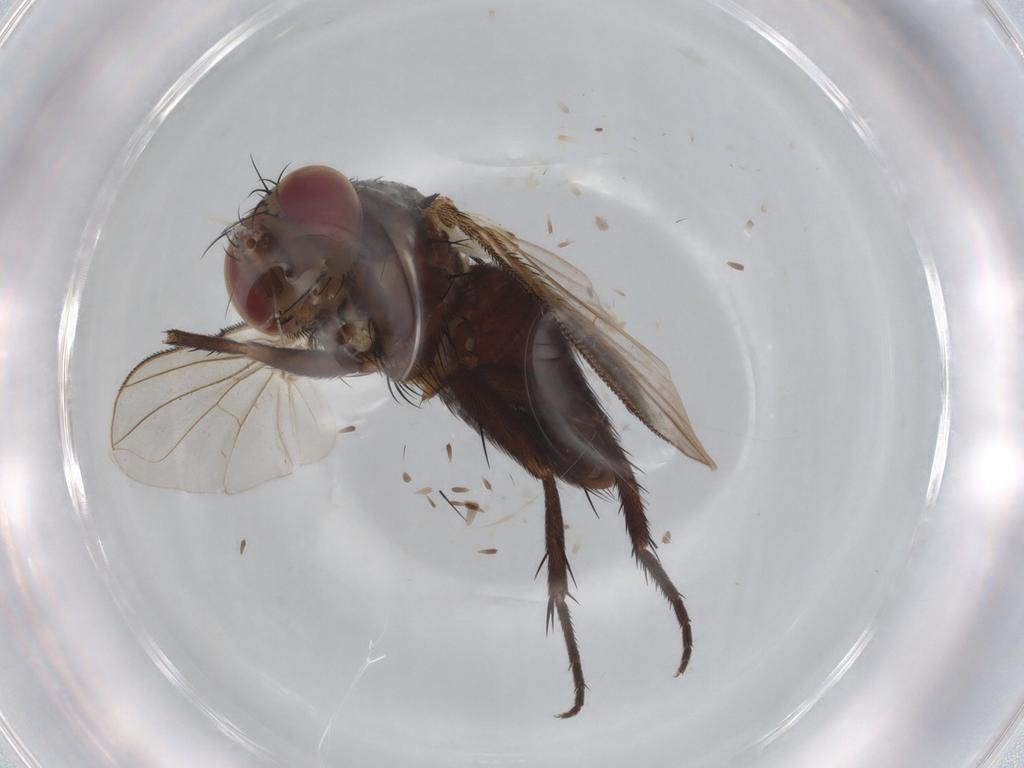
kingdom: Animalia
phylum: Arthropoda
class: Insecta
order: Diptera
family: Tachinidae
